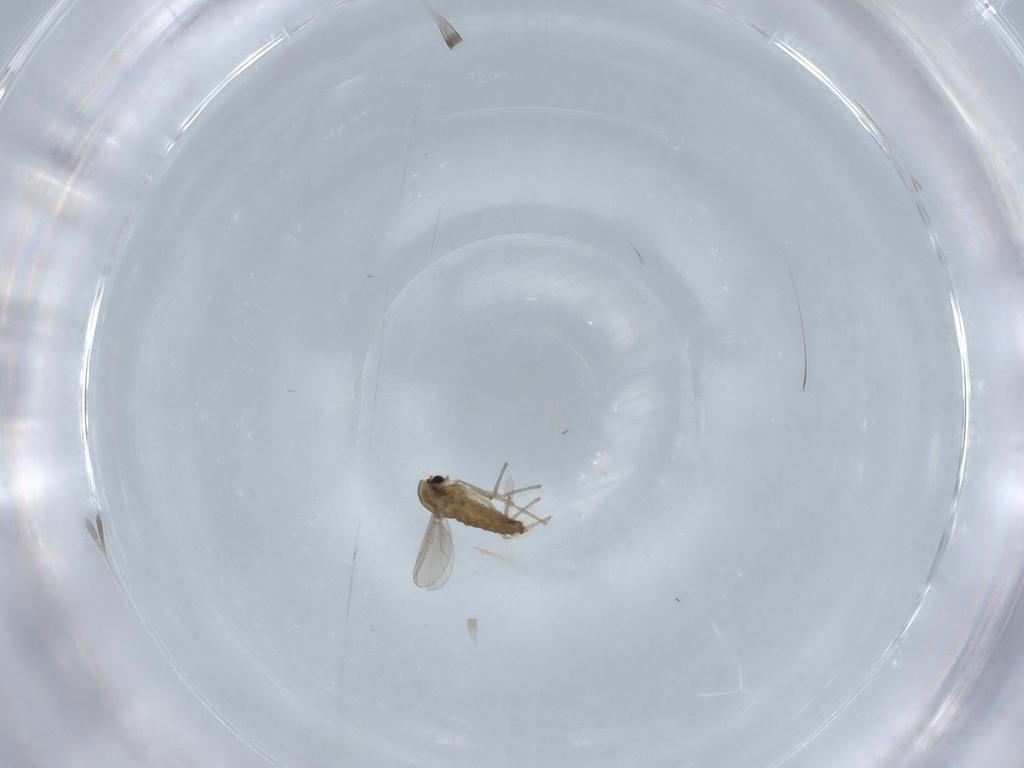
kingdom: Animalia
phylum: Arthropoda
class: Insecta
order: Diptera
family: Chironomidae
